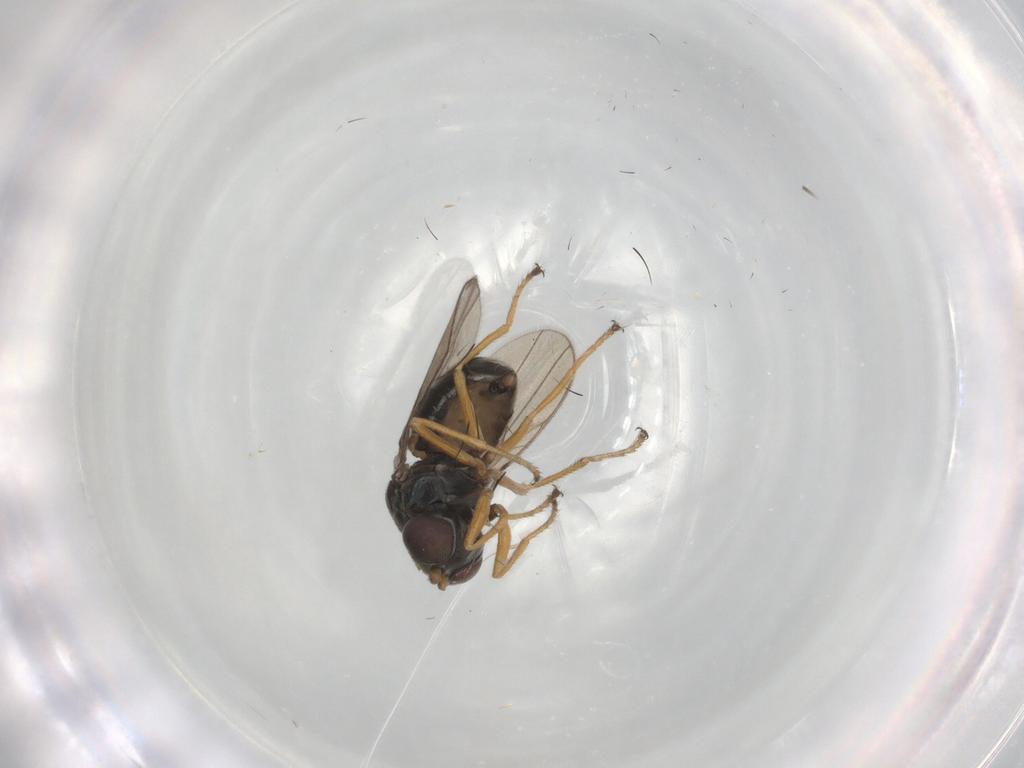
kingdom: Animalia
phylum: Arthropoda
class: Insecta
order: Diptera
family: Ephydridae
